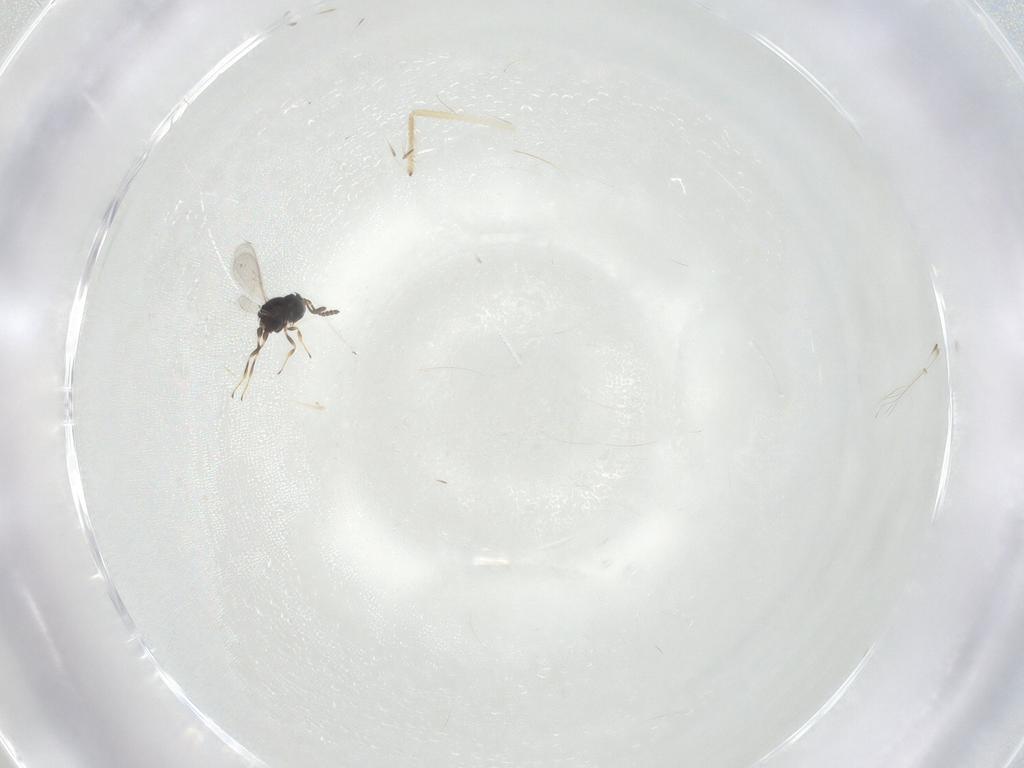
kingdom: Animalia
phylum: Arthropoda
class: Insecta
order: Hymenoptera
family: Scelionidae
